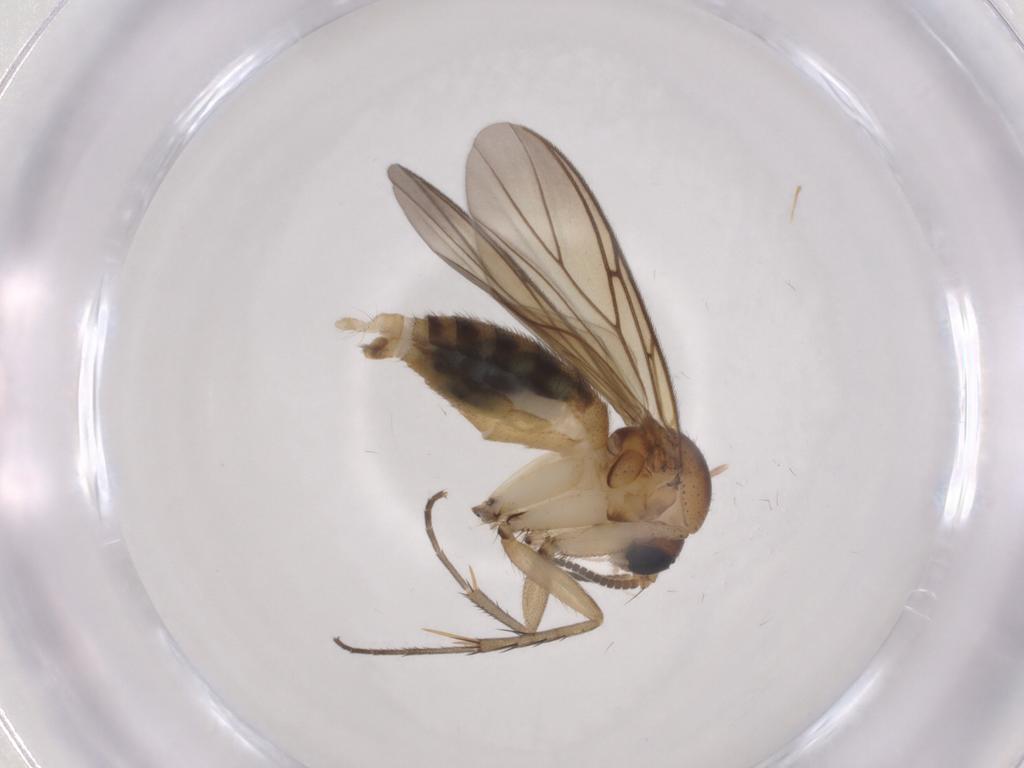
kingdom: Animalia
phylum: Arthropoda
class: Insecta
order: Diptera
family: Mycetophilidae
